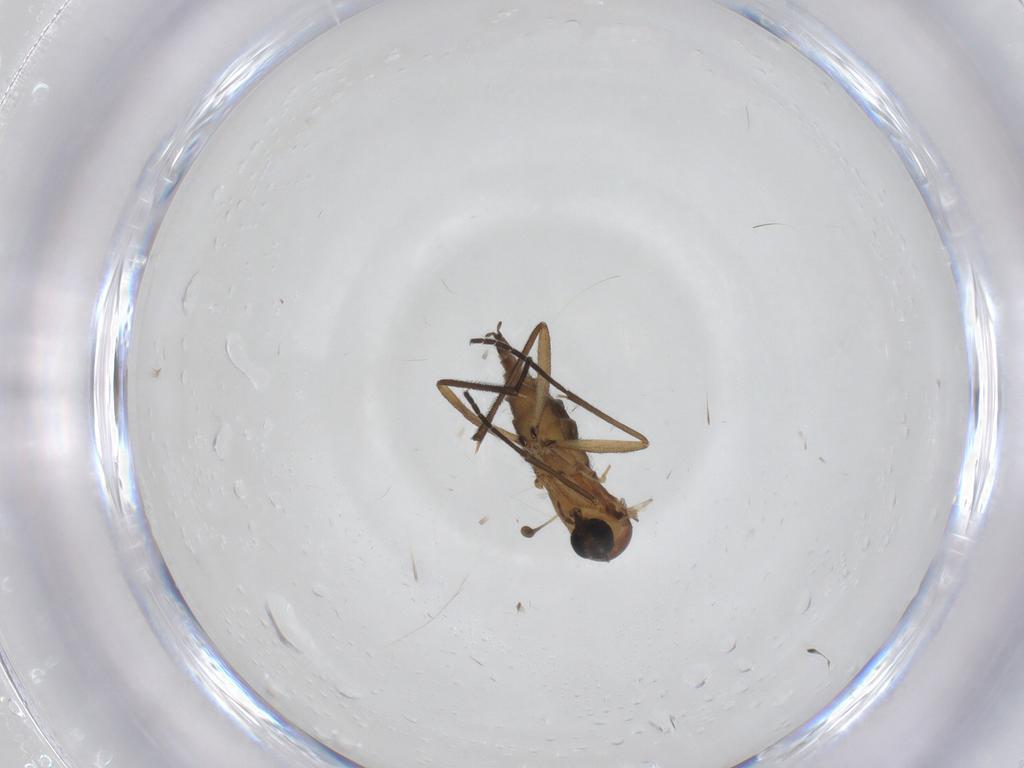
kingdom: Animalia
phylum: Arthropoda
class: Insecta
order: Diptera
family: Sciaridae
